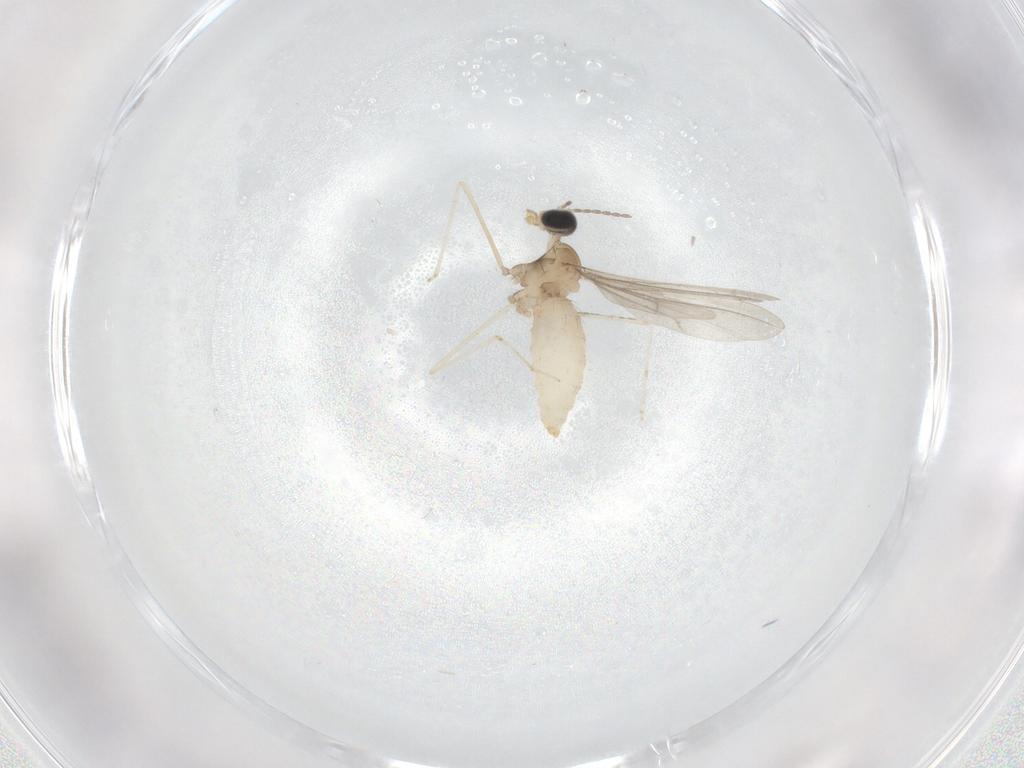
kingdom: Animalia
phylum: Arthropoda
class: Insecta
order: Diptera
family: Cecidomyiidae
